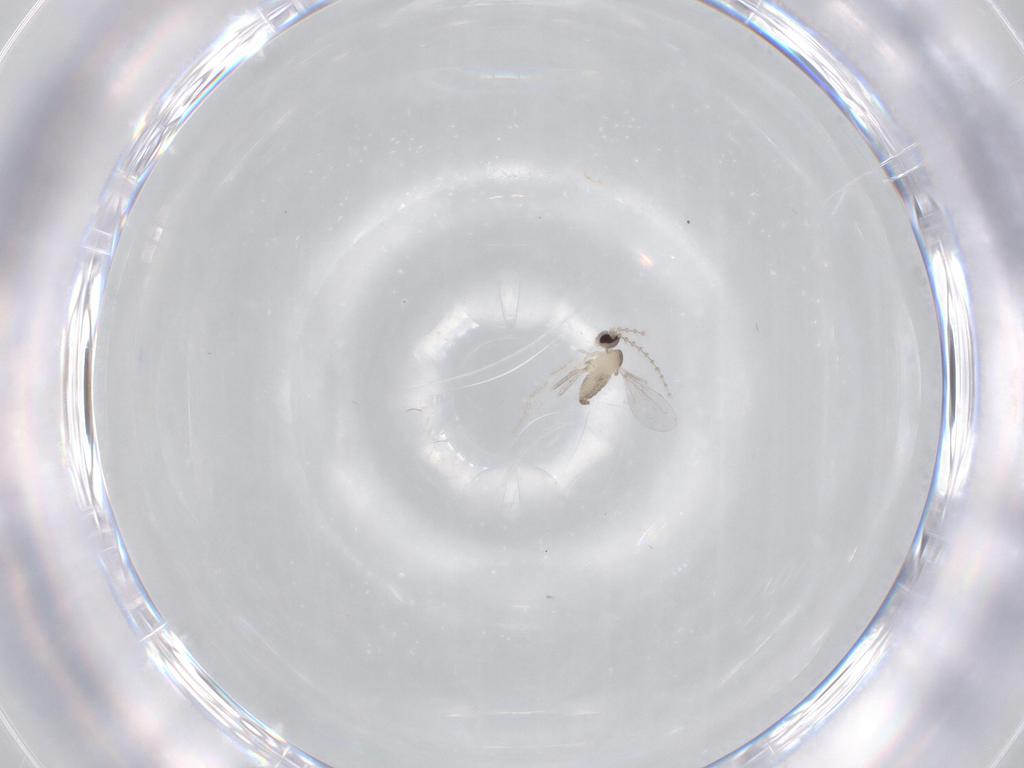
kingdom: Animalia
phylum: Arthropoda
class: Insecta
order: Diptera
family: Cecidomyiidae
